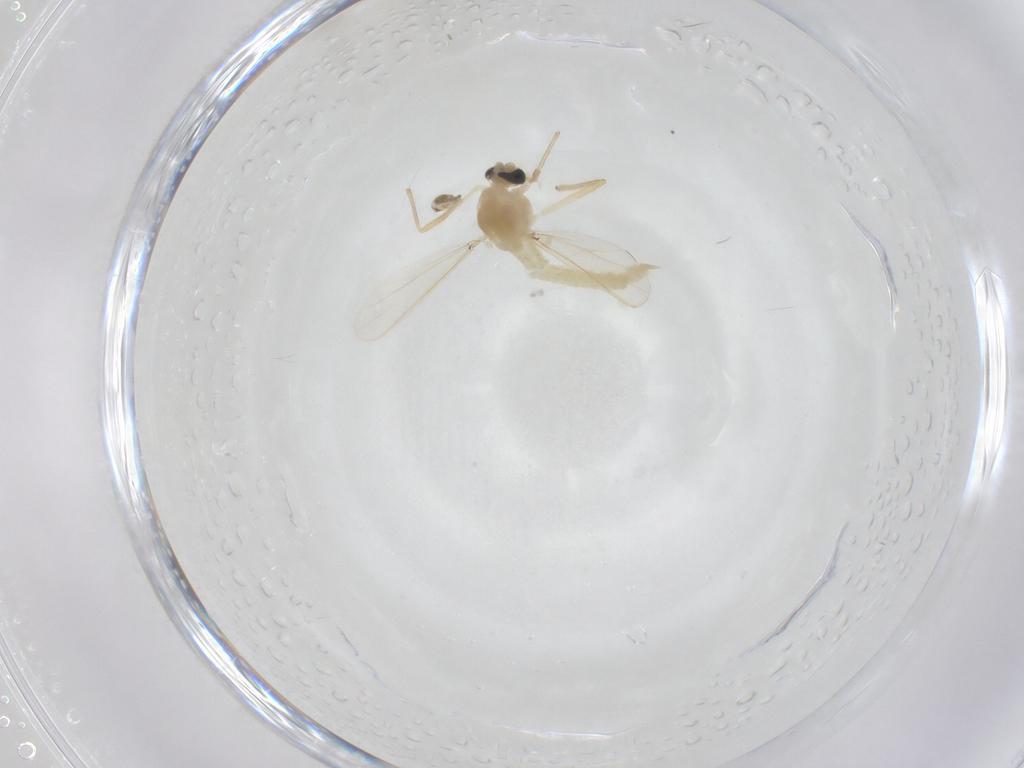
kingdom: Animalia
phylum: Arthropoda
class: Insecta
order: Diptera
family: Chironomidae
